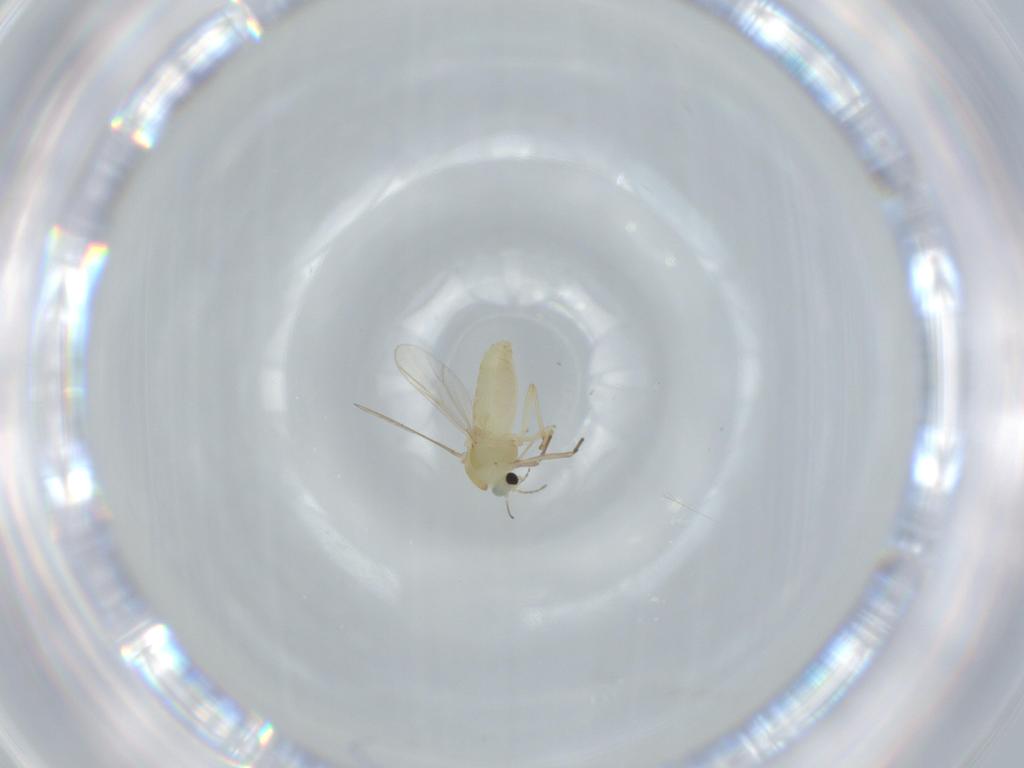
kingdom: Animalia
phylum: Arthropoda
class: Insecta
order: Diptera
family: Chironomidae
